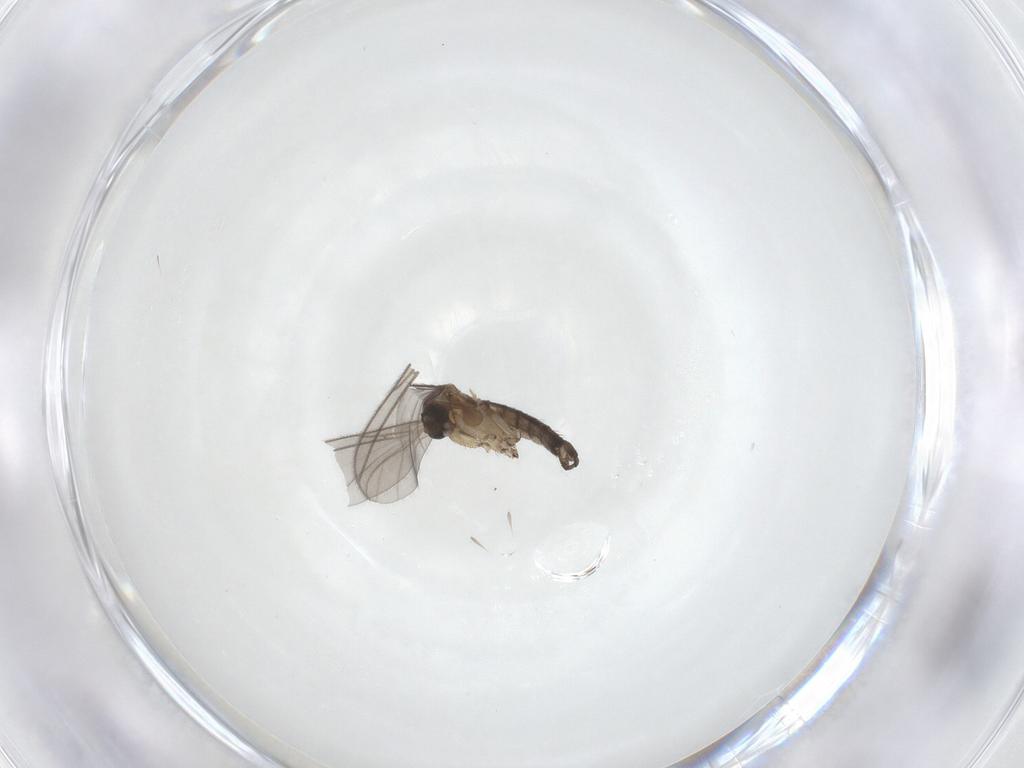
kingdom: Animalia
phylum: Arthropoda
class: Insecta
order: Diptera
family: Sciaridae
